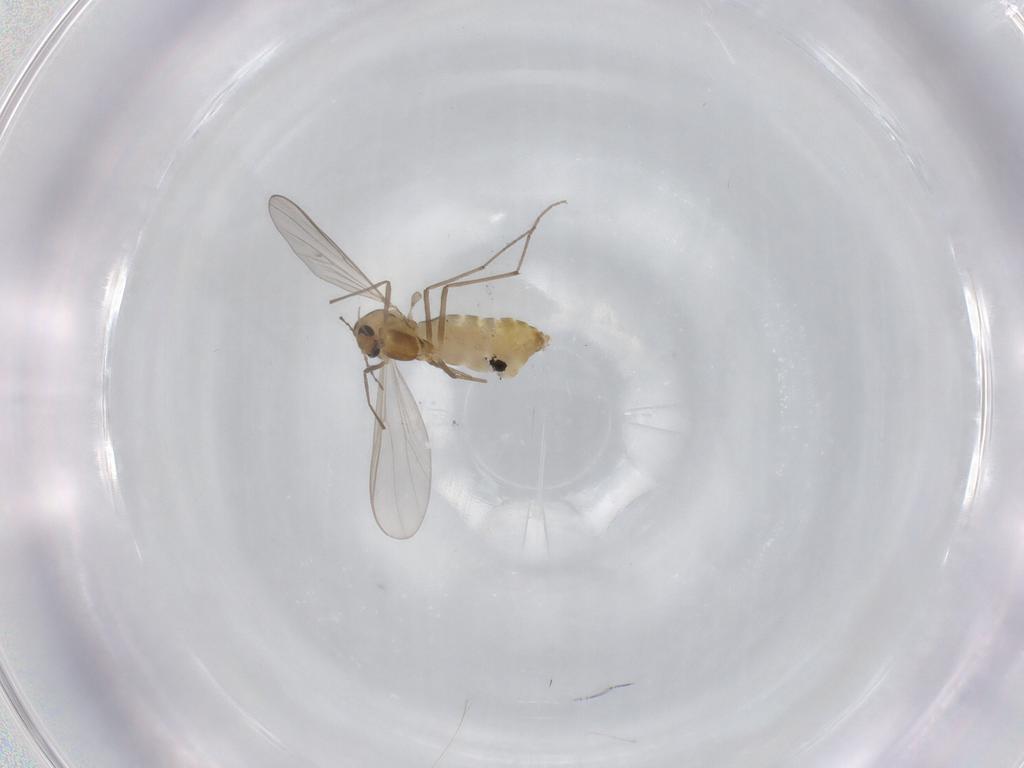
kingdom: Animalia
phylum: Arthropoda
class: Insecta
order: Diptera
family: Chironomidae
